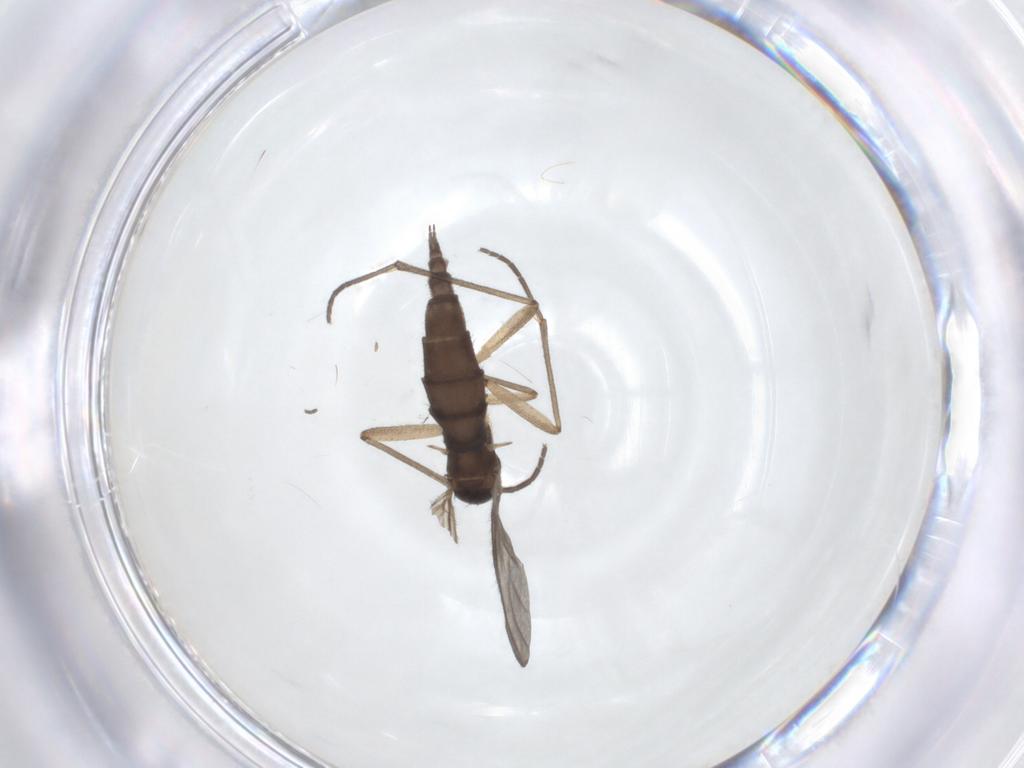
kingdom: Animalia
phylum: Arthropoda
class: Insecta
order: Diptera
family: Sciaridae
